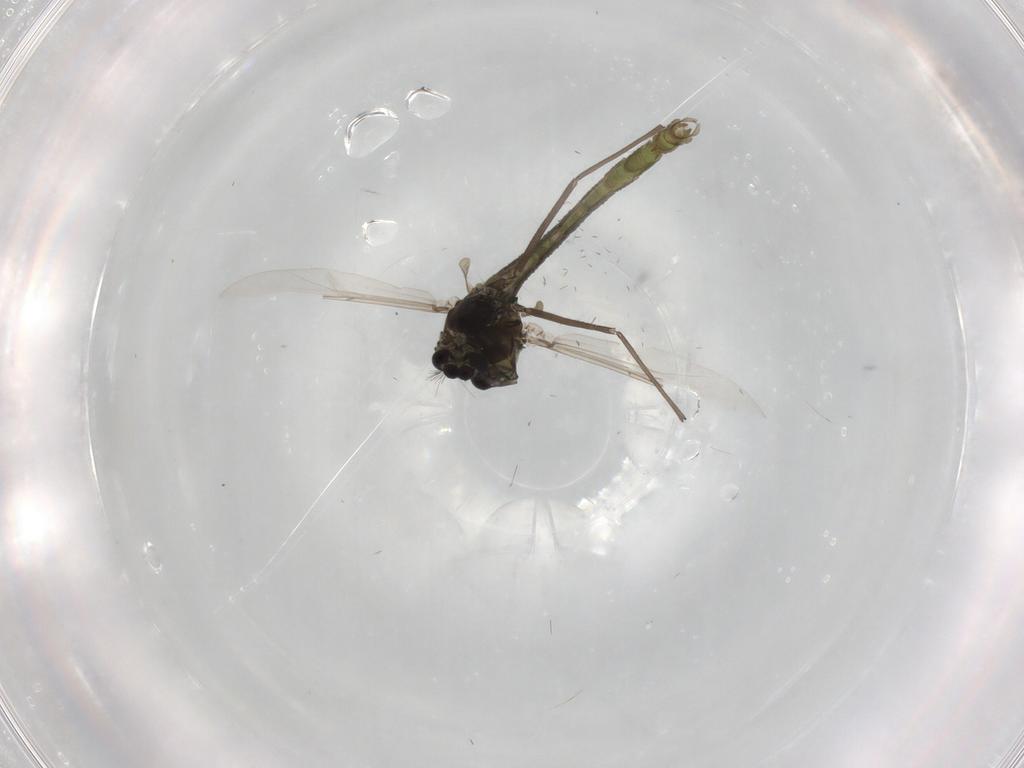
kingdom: Animalia
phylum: Arthropoda
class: Insecta
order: Diptera
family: Chironomidae
